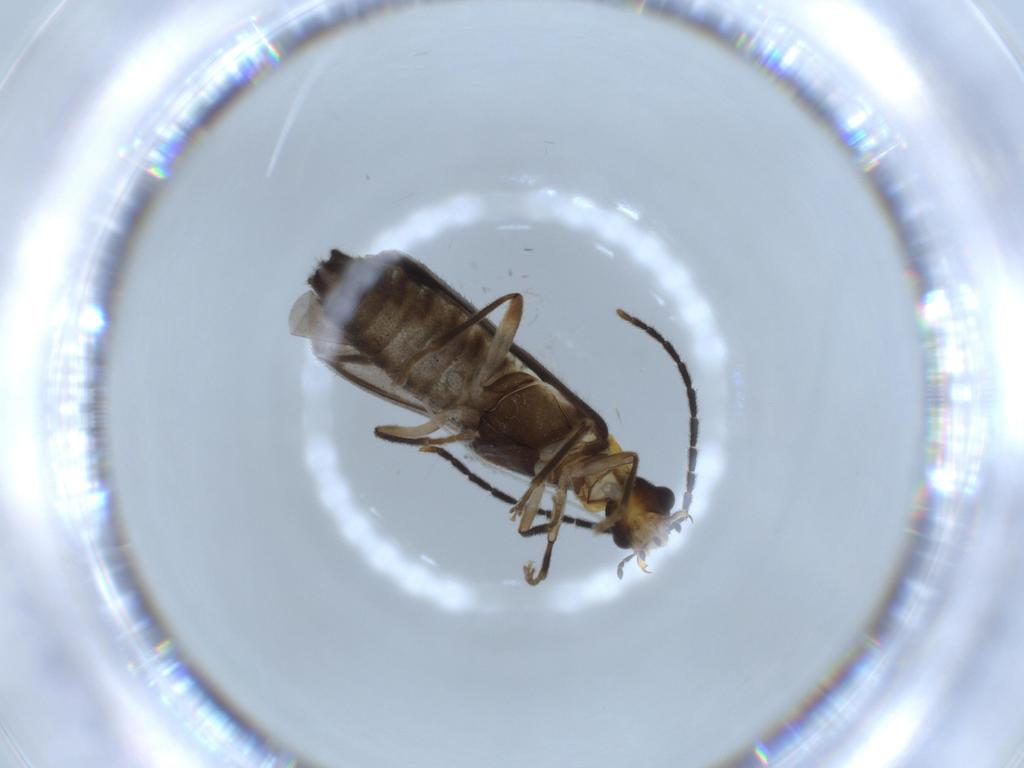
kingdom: Animalia
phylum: Arthropoda
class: Insecta
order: Coleoptera
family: Cantharidae
